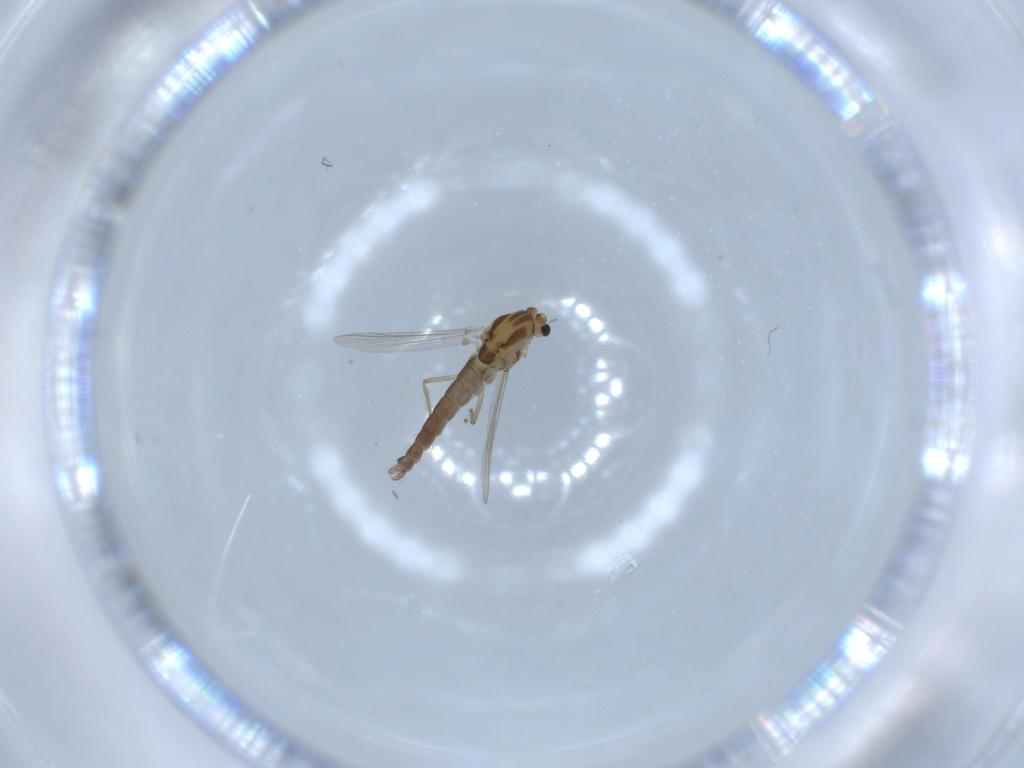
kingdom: Animalia
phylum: Arthropoda
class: Insecta
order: Diptera
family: Chironomidae
